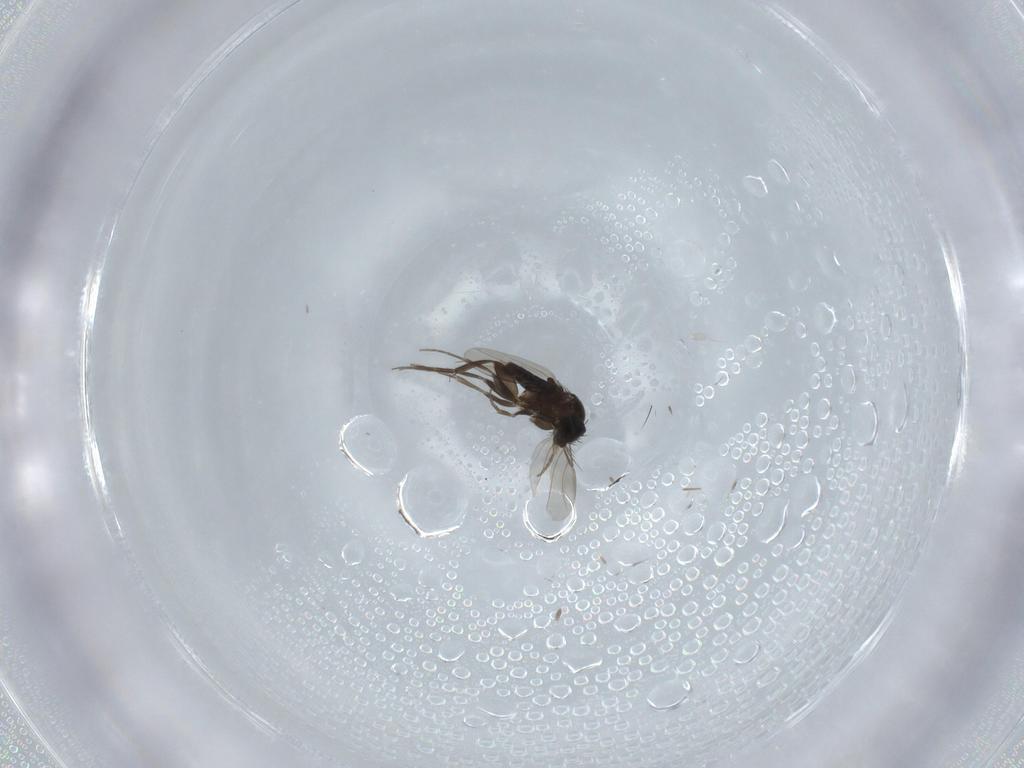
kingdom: Animalia
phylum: Arthropoda
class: Insecta
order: Diptera
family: Phoridae
